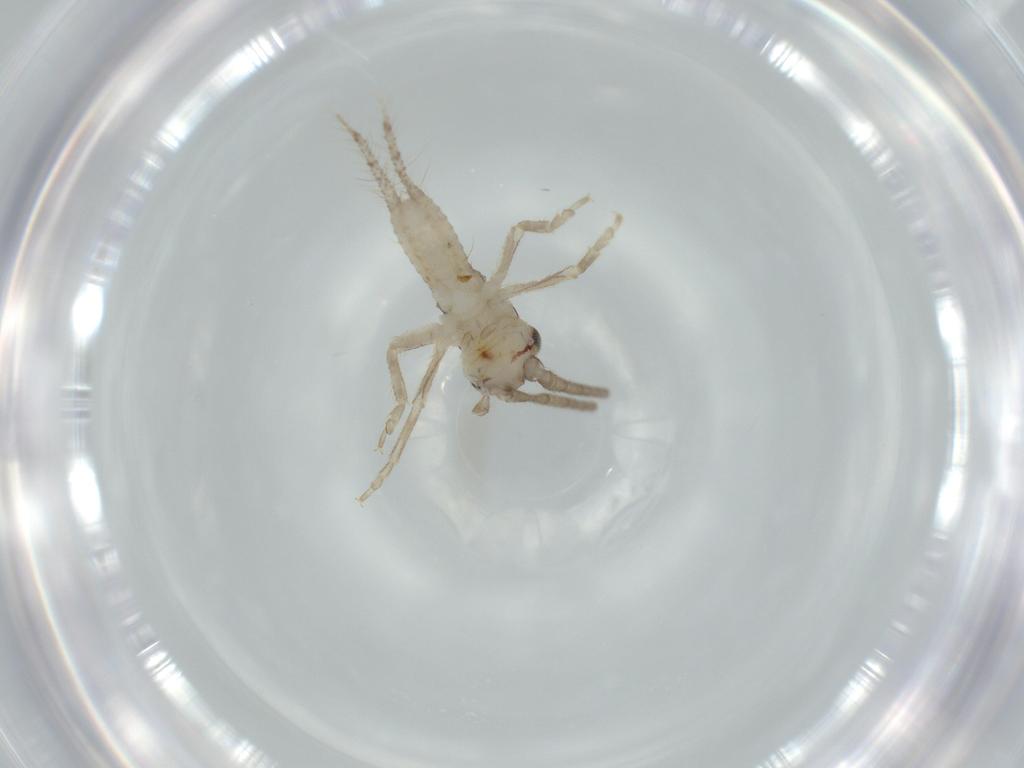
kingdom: Animalia
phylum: Arthropoda
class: Insecta
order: Orthoptera
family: Gryllidae
